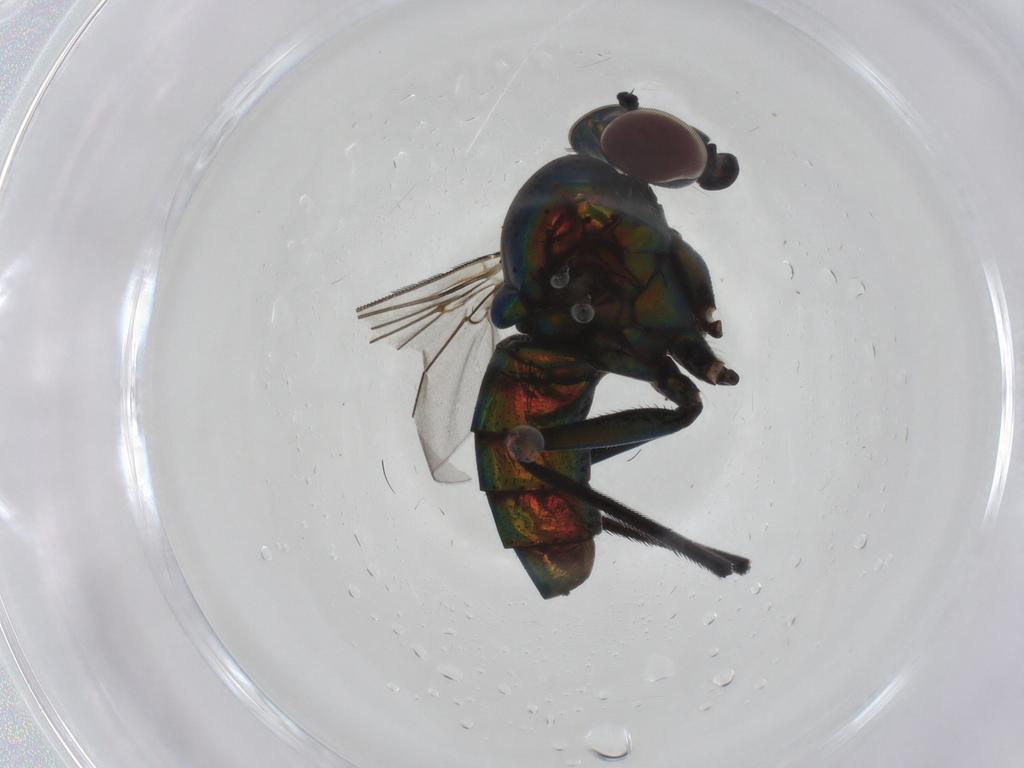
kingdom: Animalia
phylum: Arthropoda
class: Insecta
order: Diptera
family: Dolichopodidae
